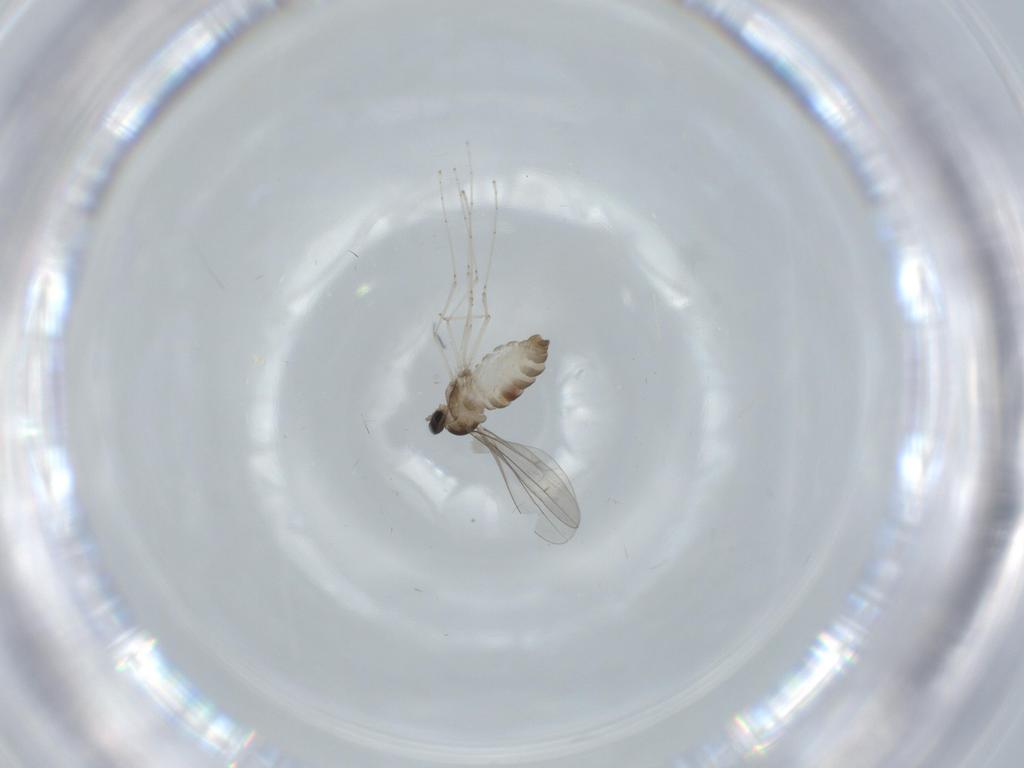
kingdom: Animalia
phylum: Arthropoda
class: Insecta
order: Diptera
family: Cecidomyiidae
